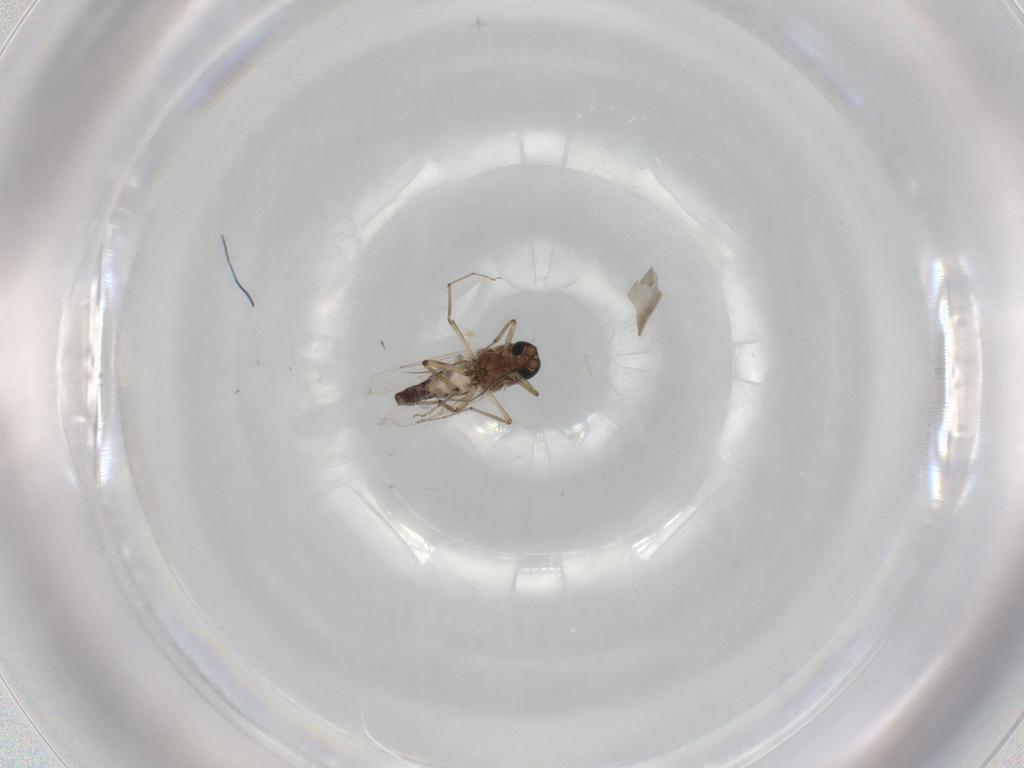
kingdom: Animalia
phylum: Arthropoda
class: Insecta
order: Diptera
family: Ceratopogonidae
